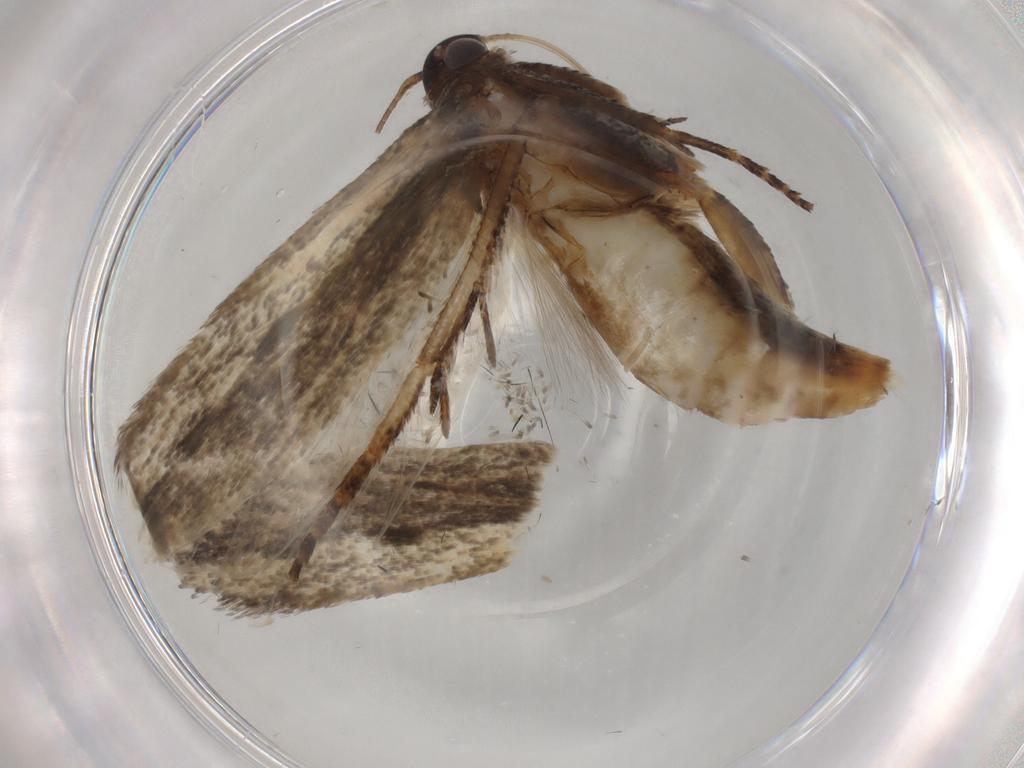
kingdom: Animalia
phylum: Arthropoda
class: Insecta
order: Lepidoptera
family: Gelechiidae
